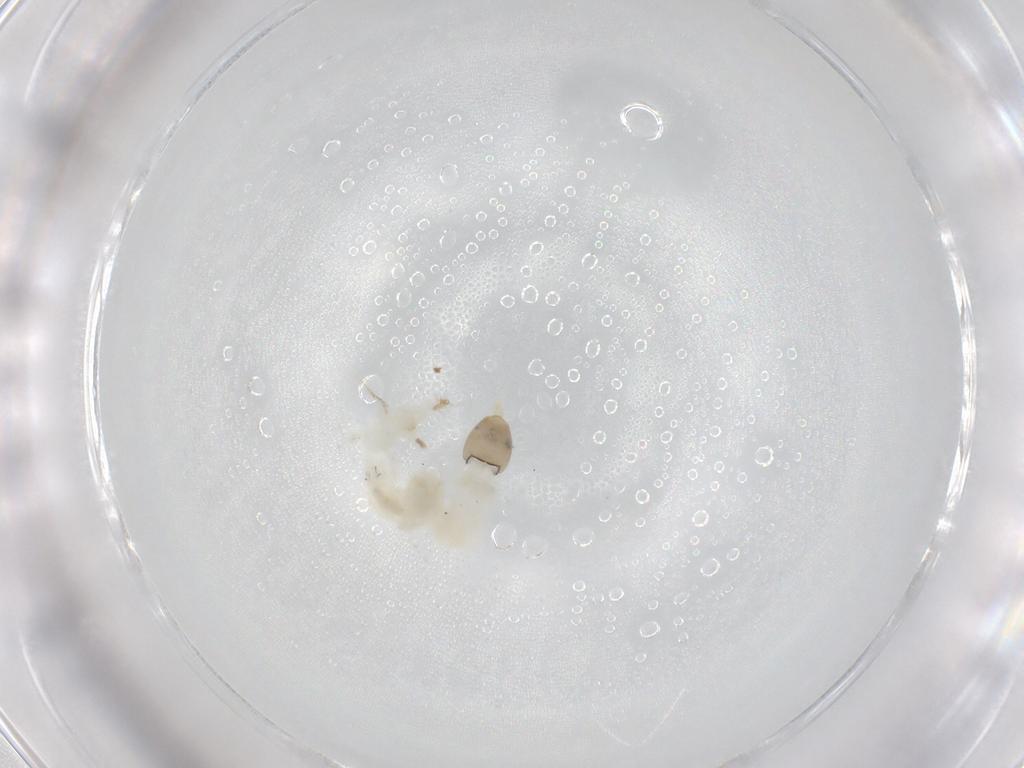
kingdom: Animalia
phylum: Arthropoda
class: Insecta
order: Diptera
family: Chironomidae
